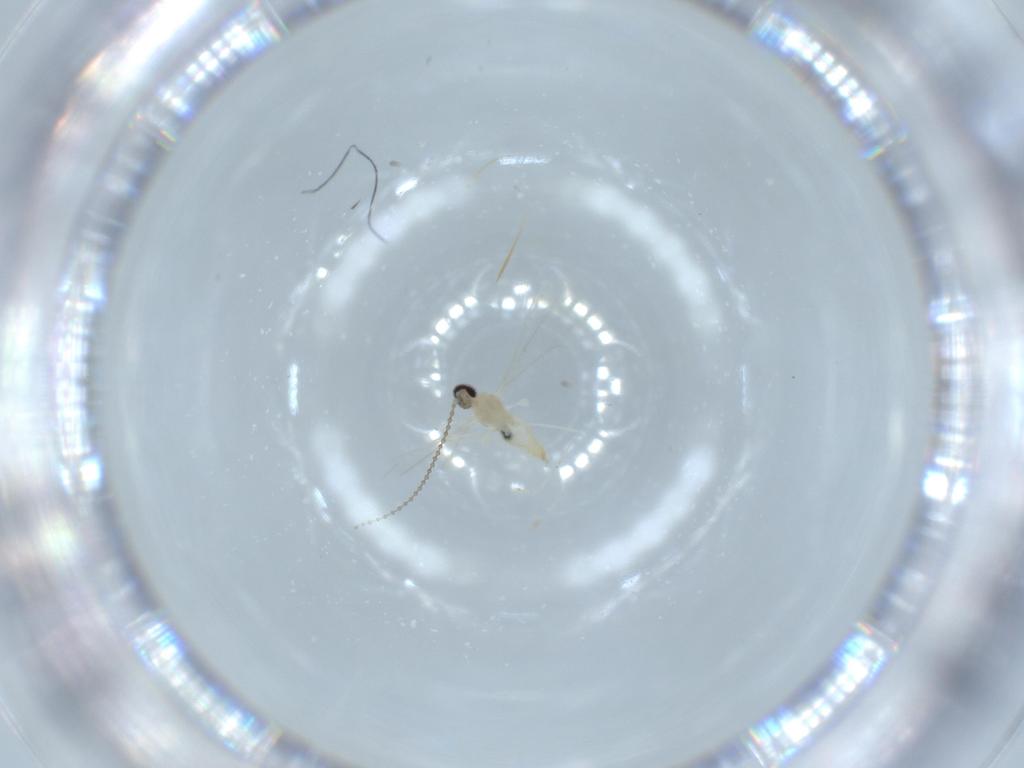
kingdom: Animalia
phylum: Arthropoda
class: Insecta
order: Diptera
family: Cecidomyiidae
